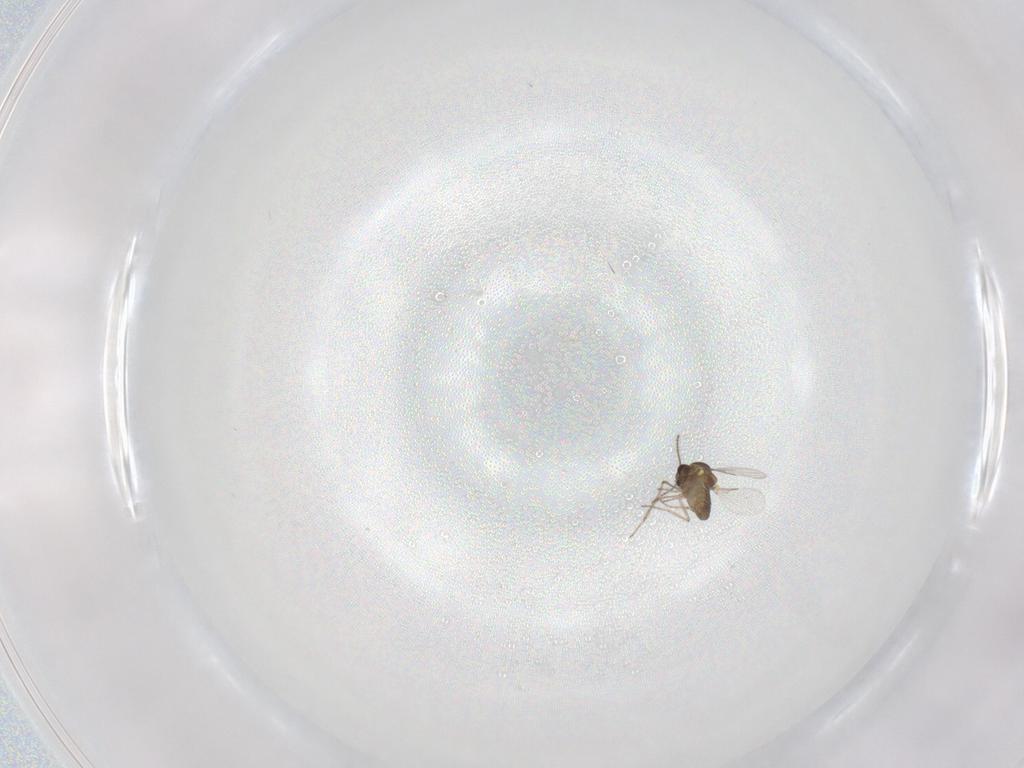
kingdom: Animalia
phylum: Arthropoda
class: Insecta
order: Diptera
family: Ceratopogonidae
